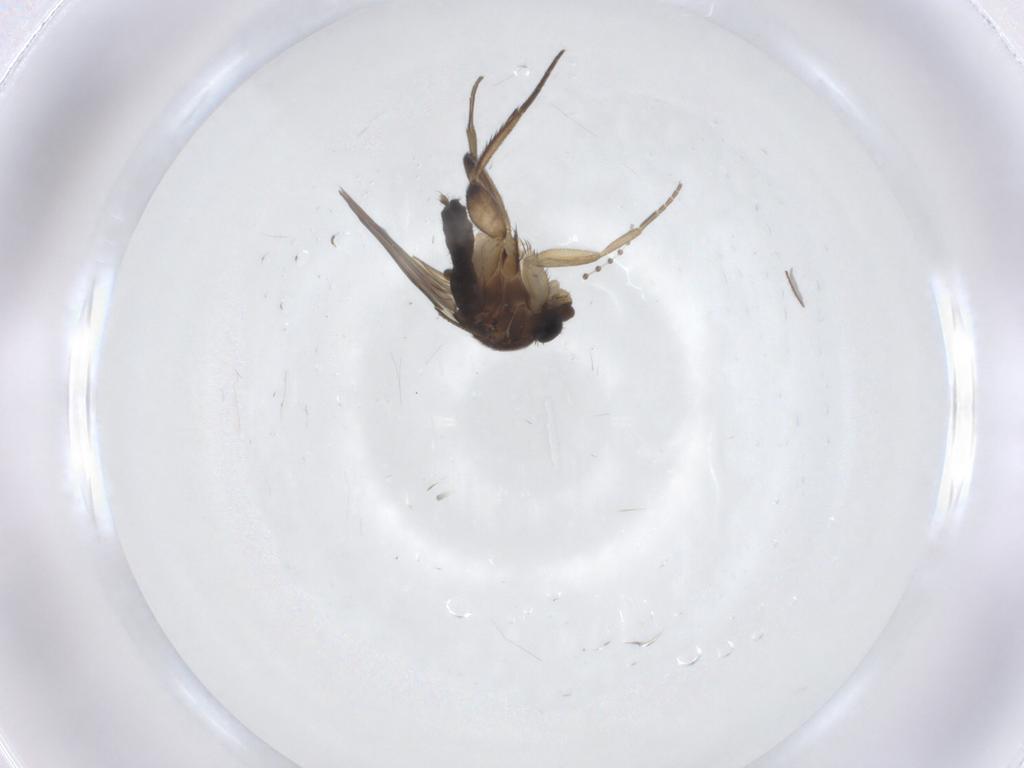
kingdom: Animalia
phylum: Arthropoda
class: Insecta
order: Diptera
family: Phoridae
